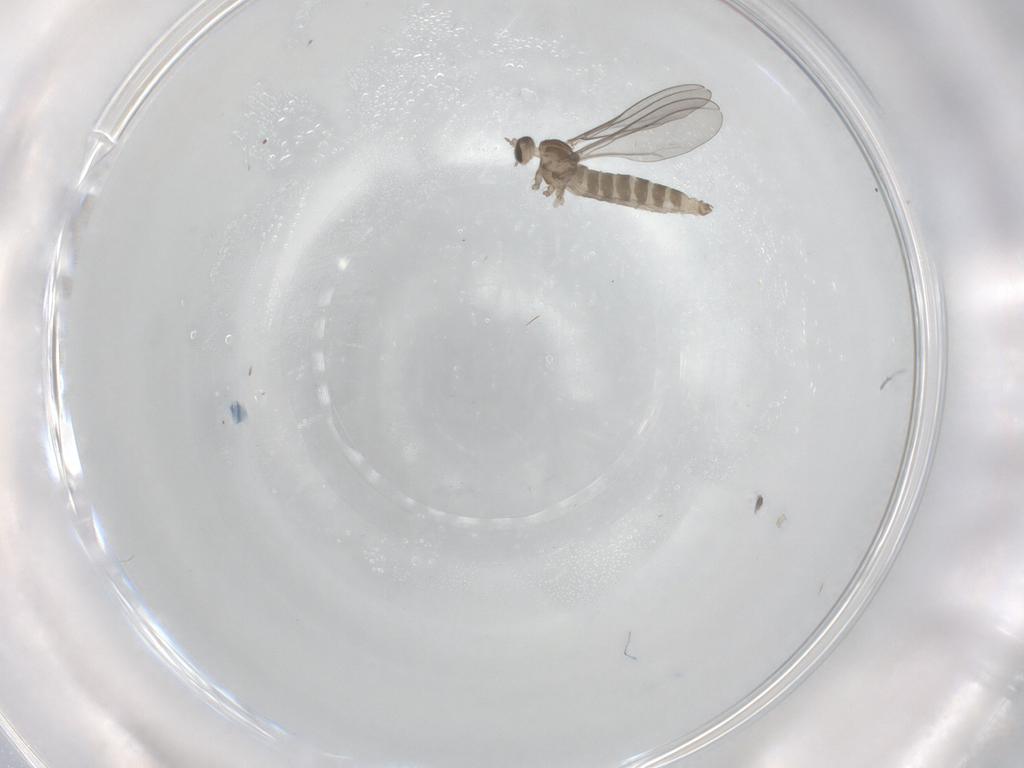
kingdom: Animalia
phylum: Arthropoda
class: Insecta
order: Diptera
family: Cecidomyiidae
